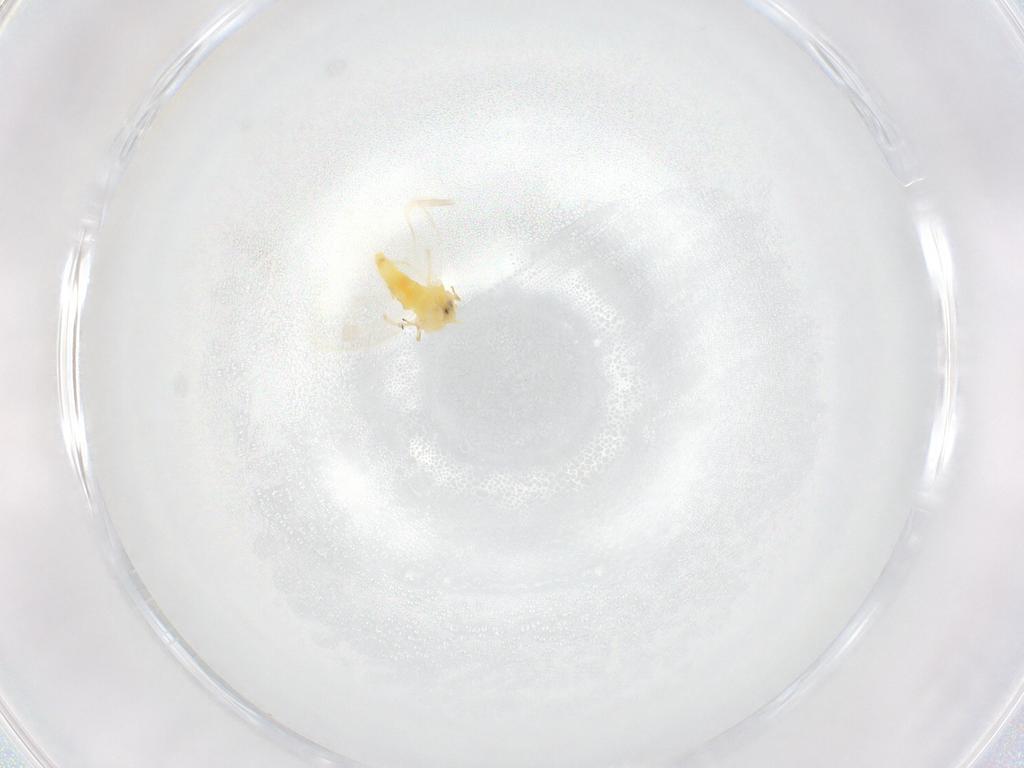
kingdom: Animalia
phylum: Arthropoda
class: Insecta
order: Hemiptera
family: Aleyrodidae
